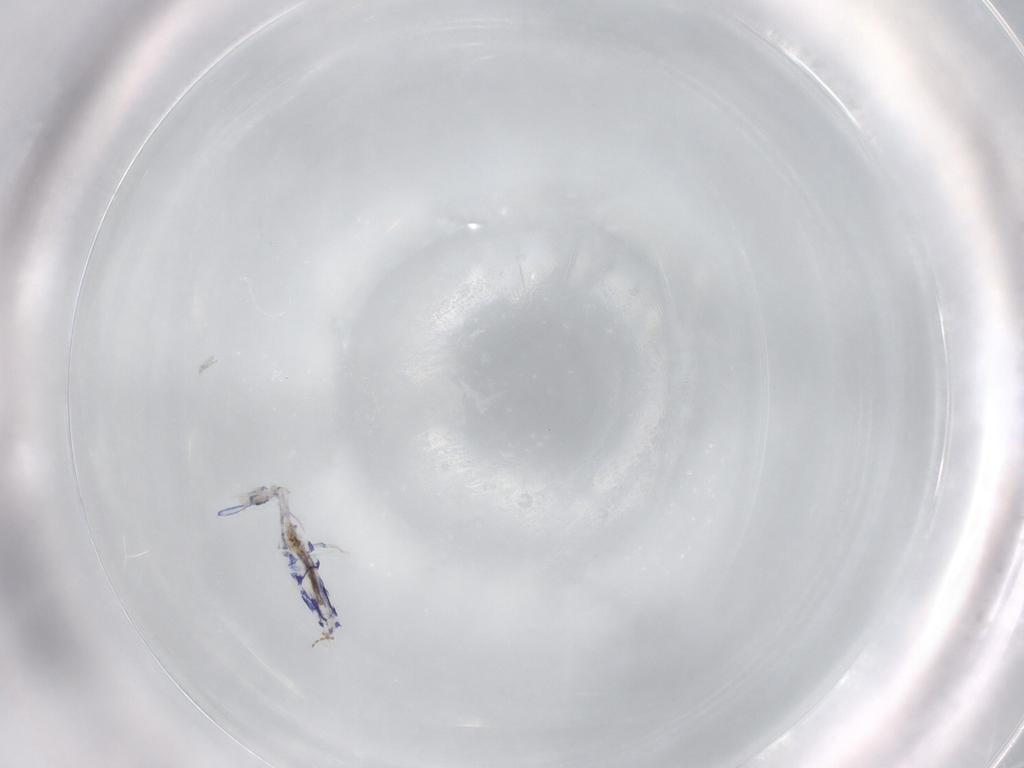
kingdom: Animalia
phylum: Arthropoda
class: Collembola
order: Entomobryomorpha
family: Entomobryidae
